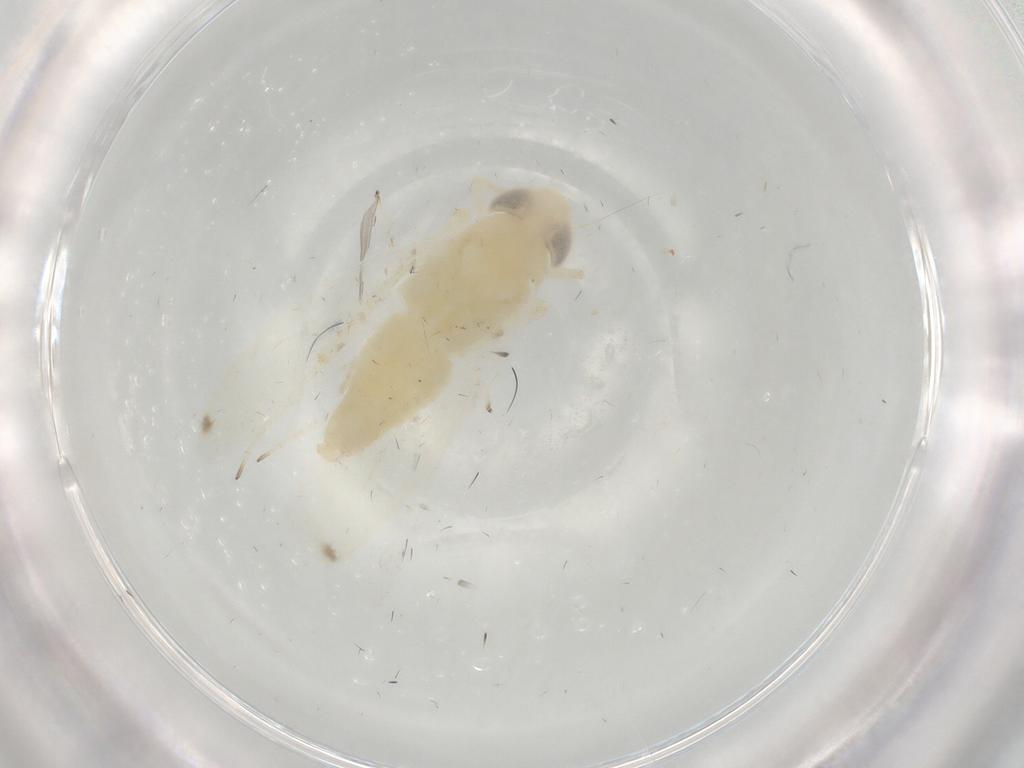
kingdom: Animalia
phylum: Arthropoda
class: Insecta
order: Hemiptera
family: Cicadellidae
